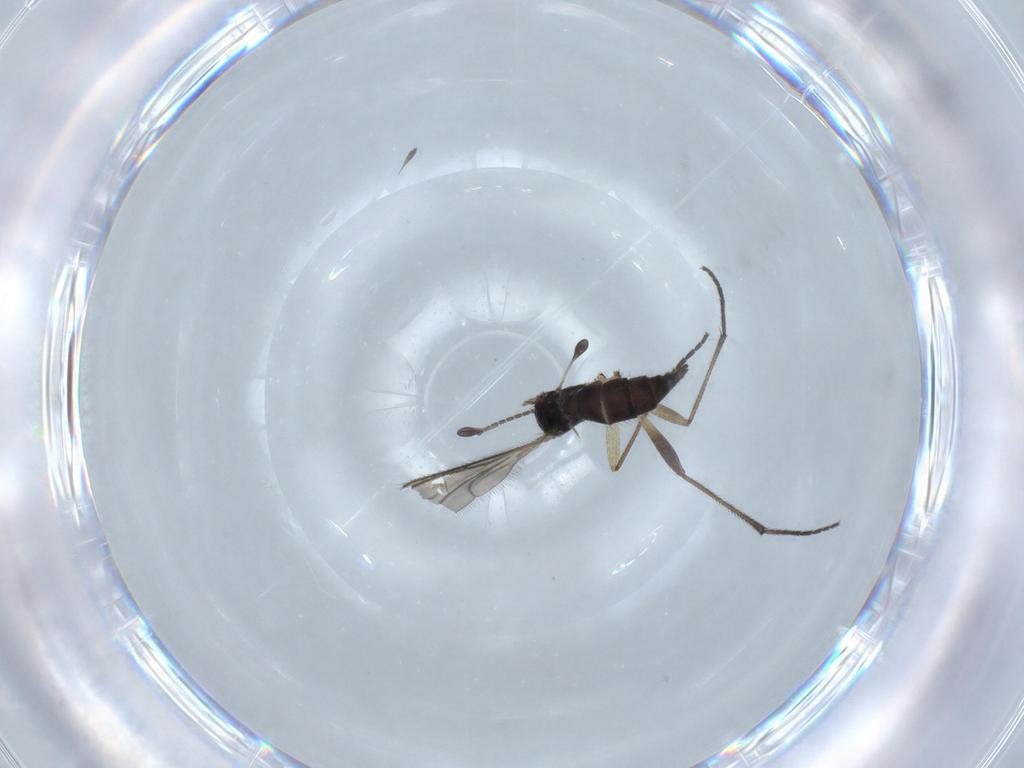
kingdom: Animalia
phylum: Arthropoda
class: Insecta
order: Diptera
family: Sciaridae
